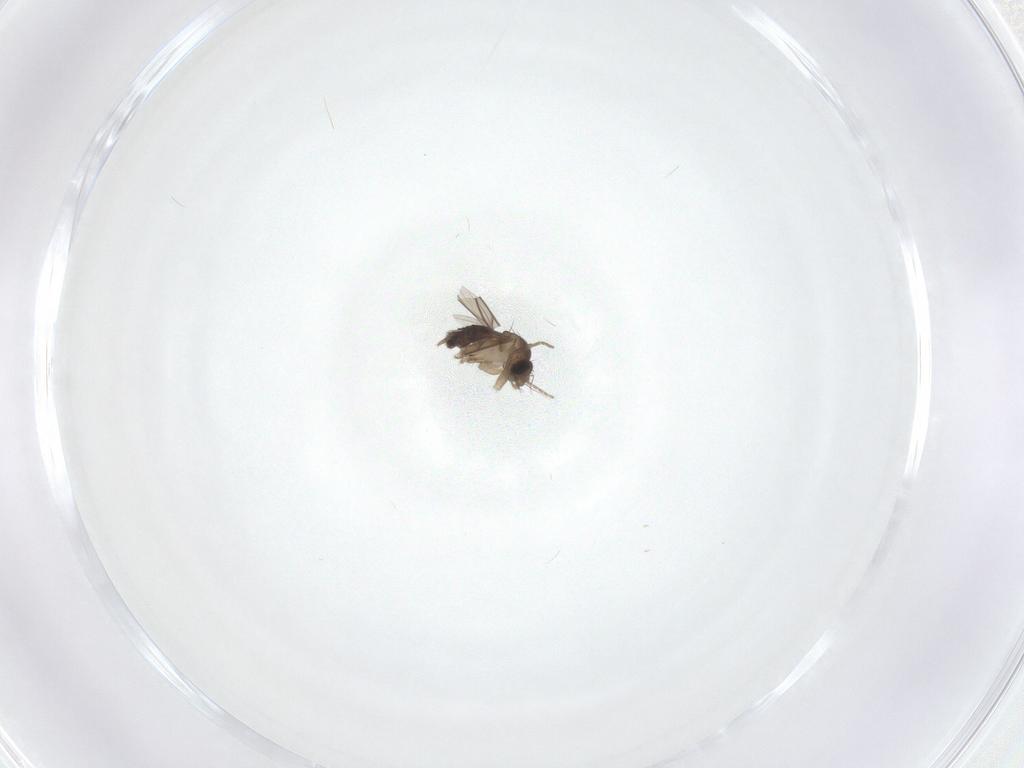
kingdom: Animalia
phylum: Arthropoda
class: Insecta
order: Diptera
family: Phoridae
